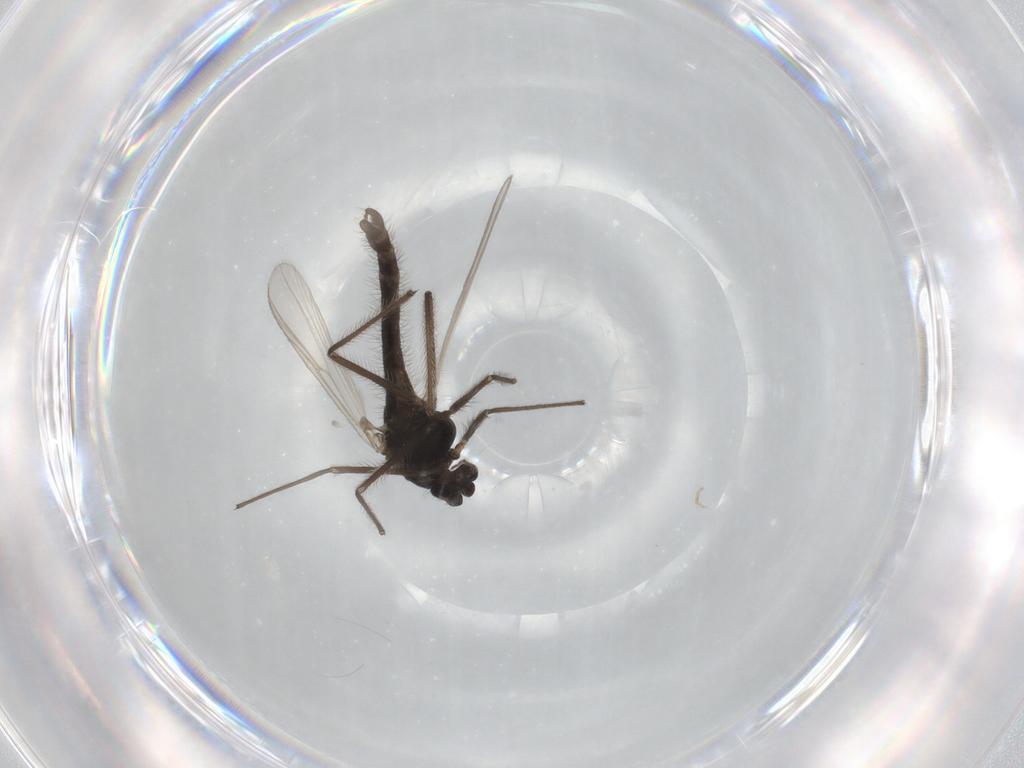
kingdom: Animalia
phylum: Arthropoda
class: Insecta
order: Diptera
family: Chironomidae
